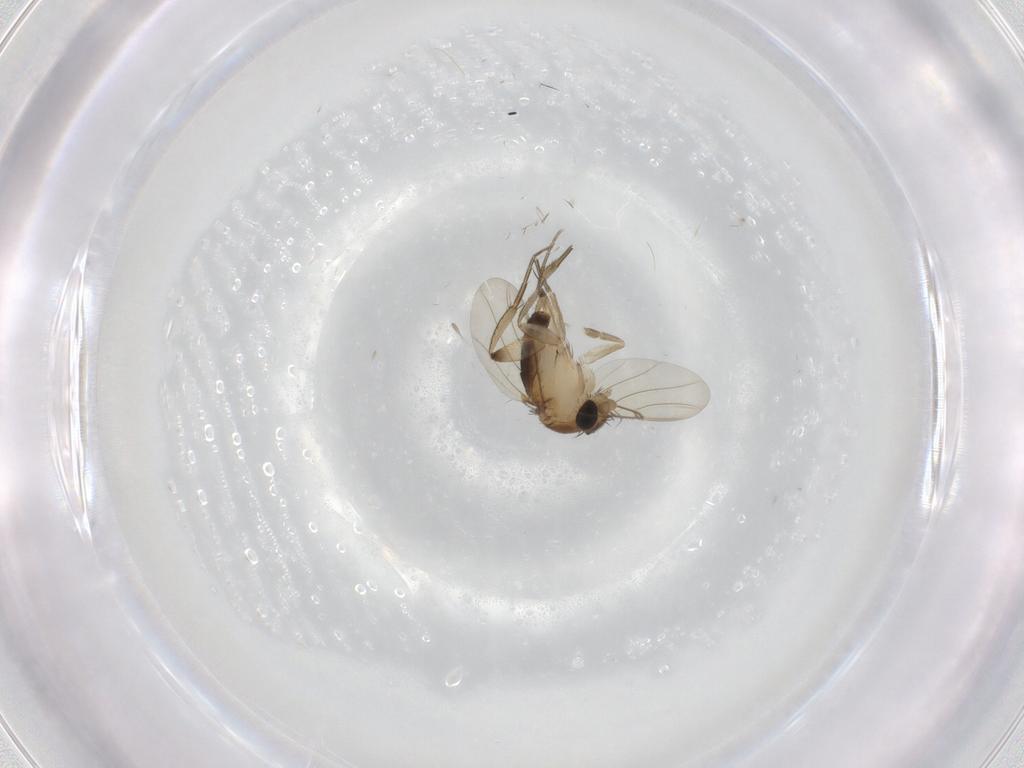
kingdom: Animalia
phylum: Arthropoda
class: Insecta
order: Diptera
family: Phoridae
